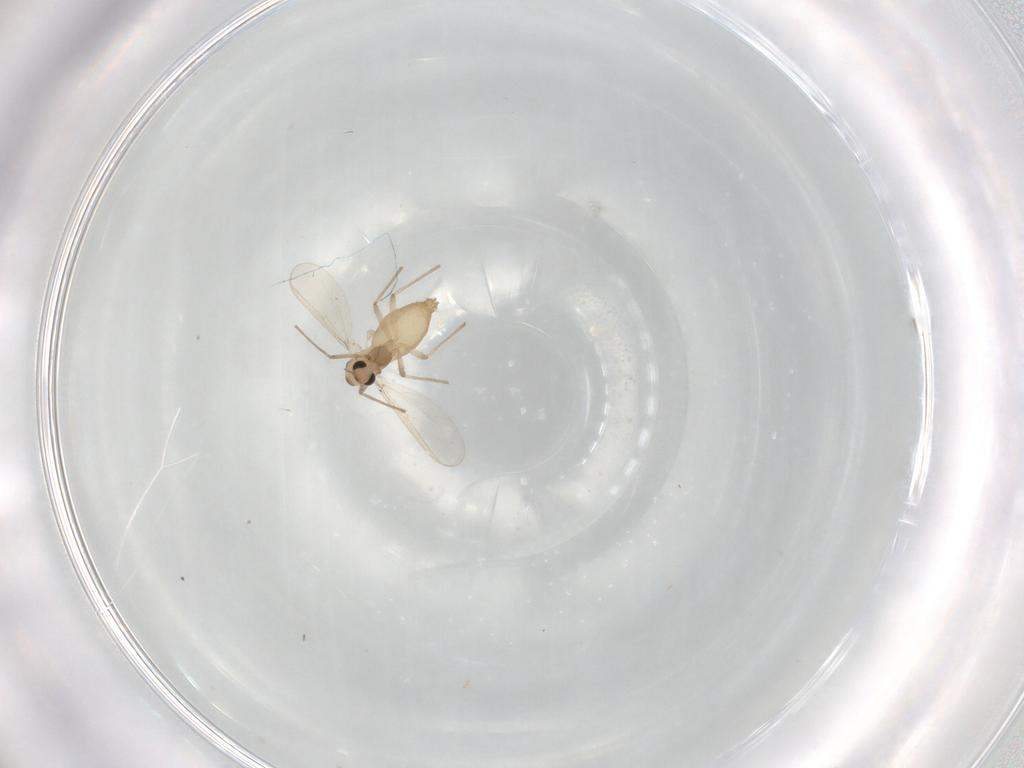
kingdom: Animalia
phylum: Arthropoda
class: Insecta
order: Diptera
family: Chironomidae
